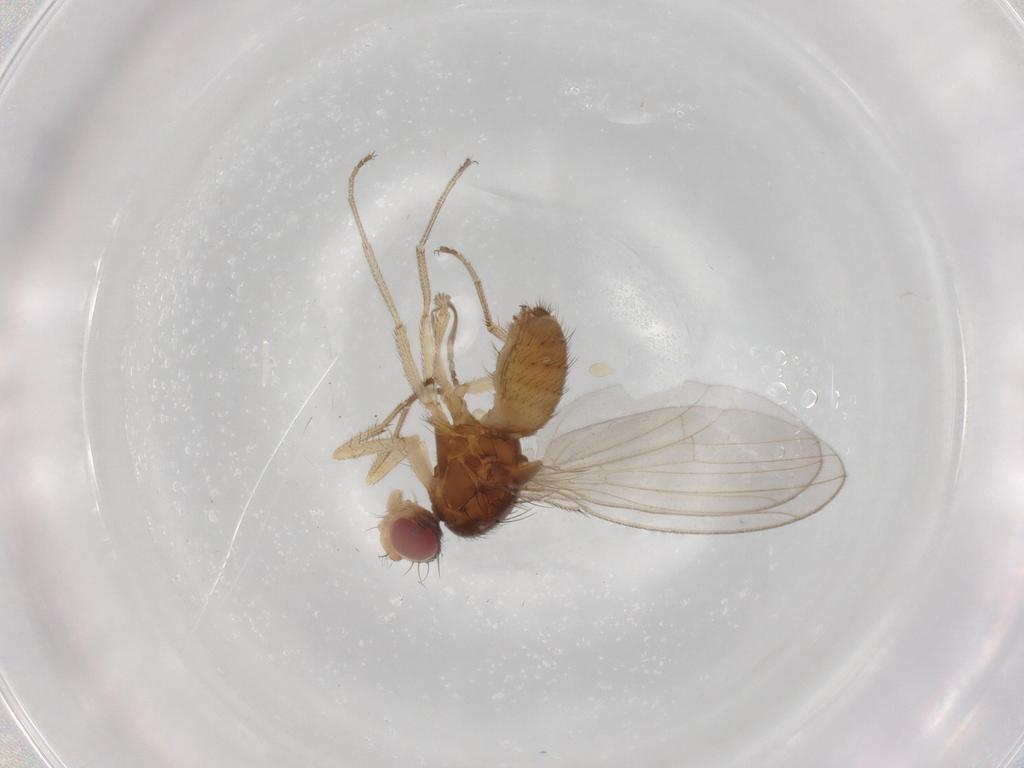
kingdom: Animalia
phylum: Arthropoda
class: Insecta
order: Diptera
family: Drosophilidae
